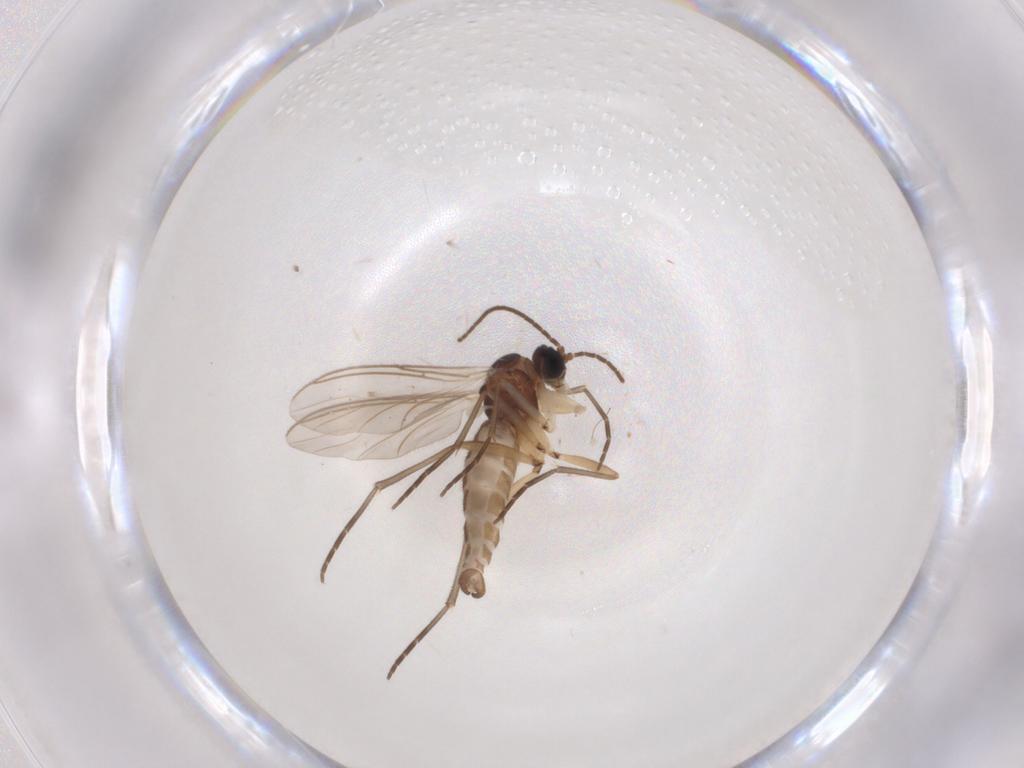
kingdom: Animalia
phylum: Arthropoda
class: Insecta
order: Diptera
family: Sciaridae
